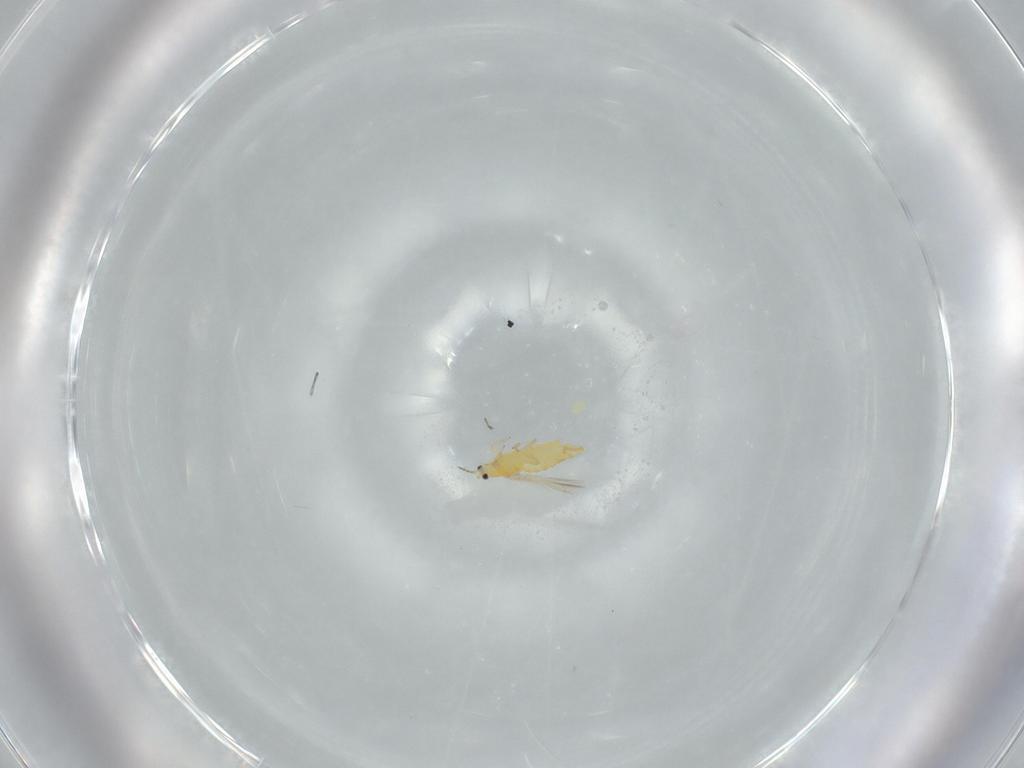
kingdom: Animalia
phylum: Arthropoda
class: Insecta
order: Thysanoptera
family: Thripidae
